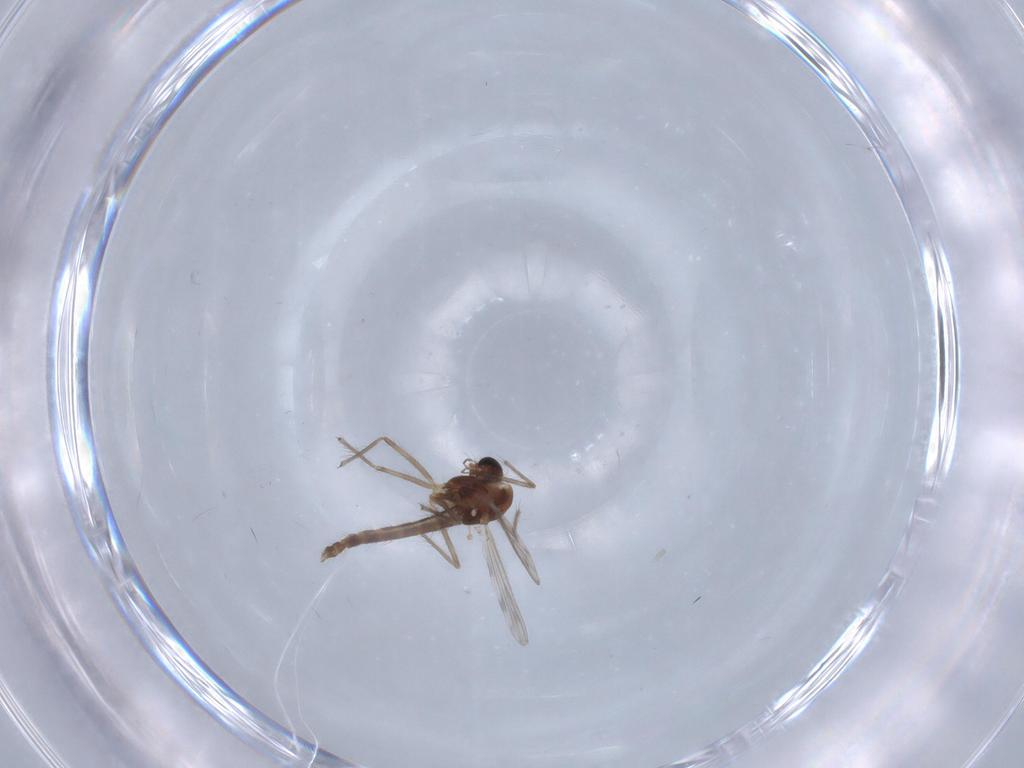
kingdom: Animalia
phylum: Arthropoda
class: Insecta
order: Diptera
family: Chironomidae
